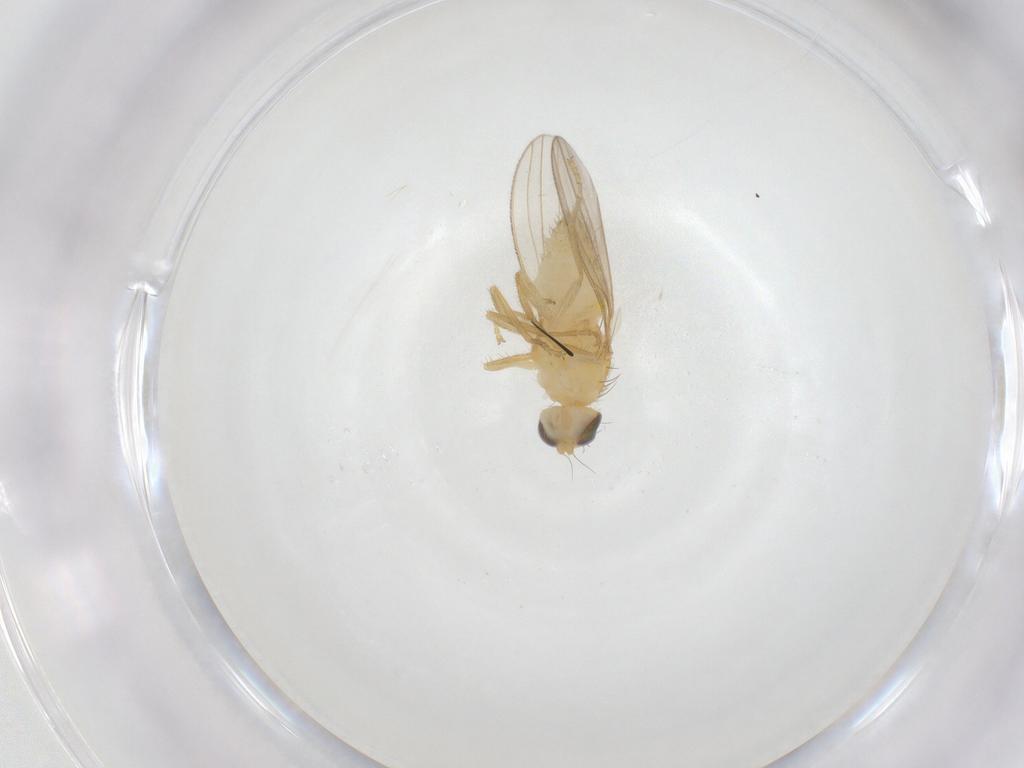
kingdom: Animalia
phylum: Arthropoda
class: Insecta
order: Diptera
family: Chyromyidae
